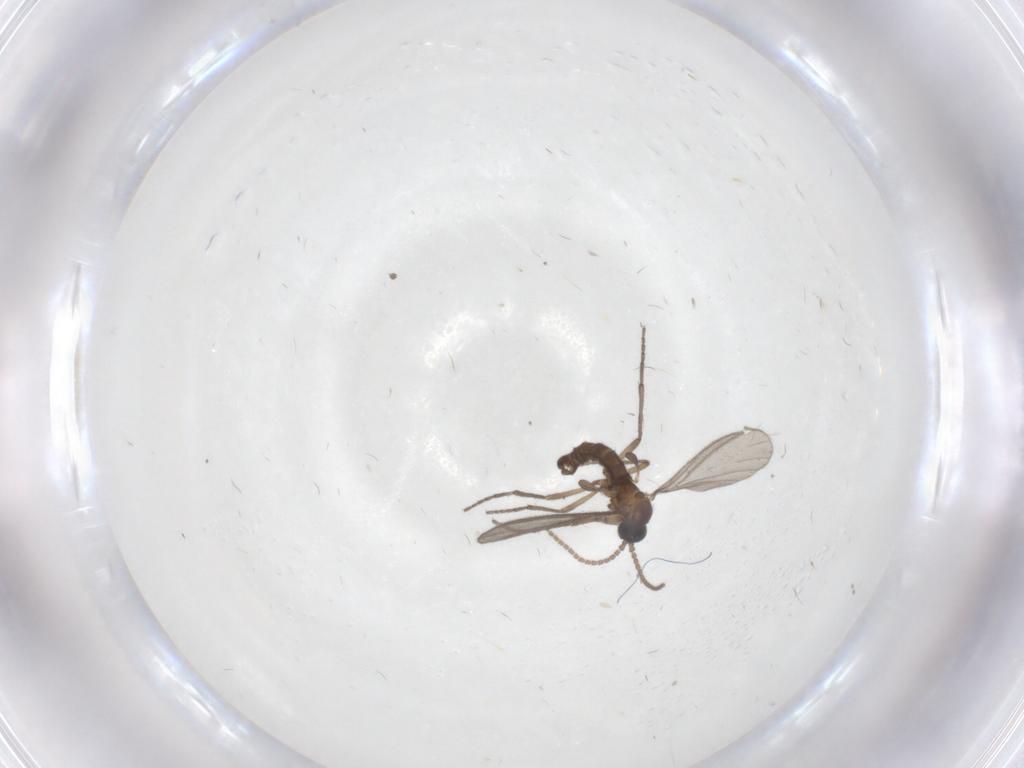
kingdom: Animalia
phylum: Arthropoda
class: Insecta
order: Diptera
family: Sciaridae
